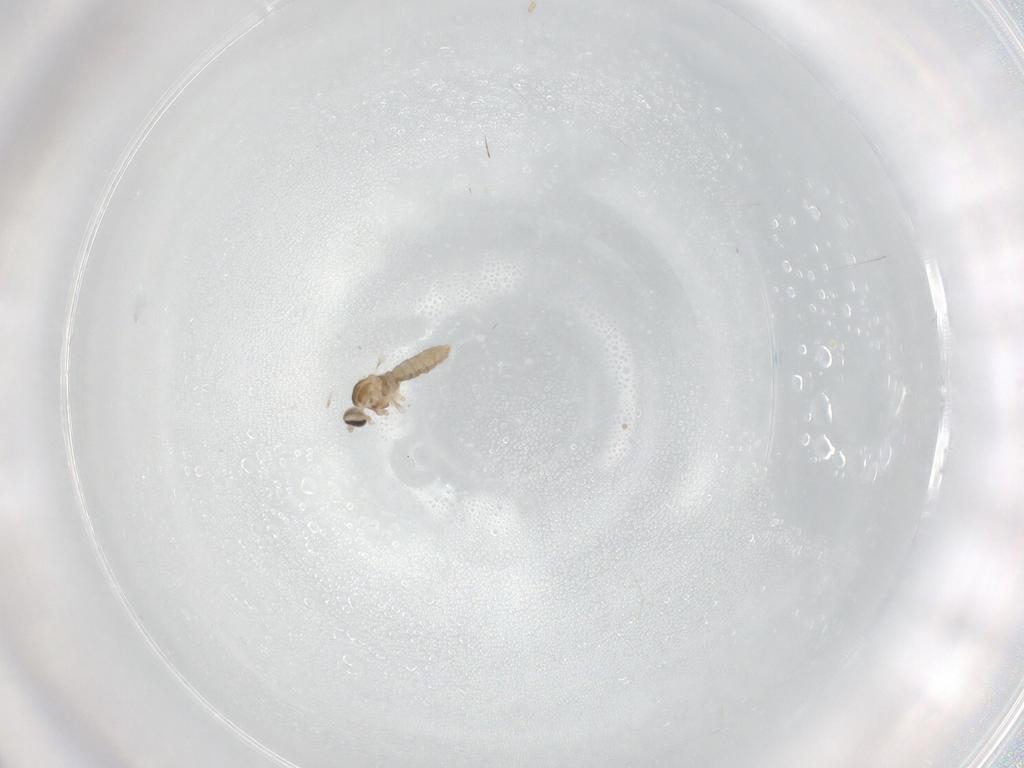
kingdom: Animalia
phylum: Arthropoda
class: Insecta
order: Diptera
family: Cecidomyiidae
